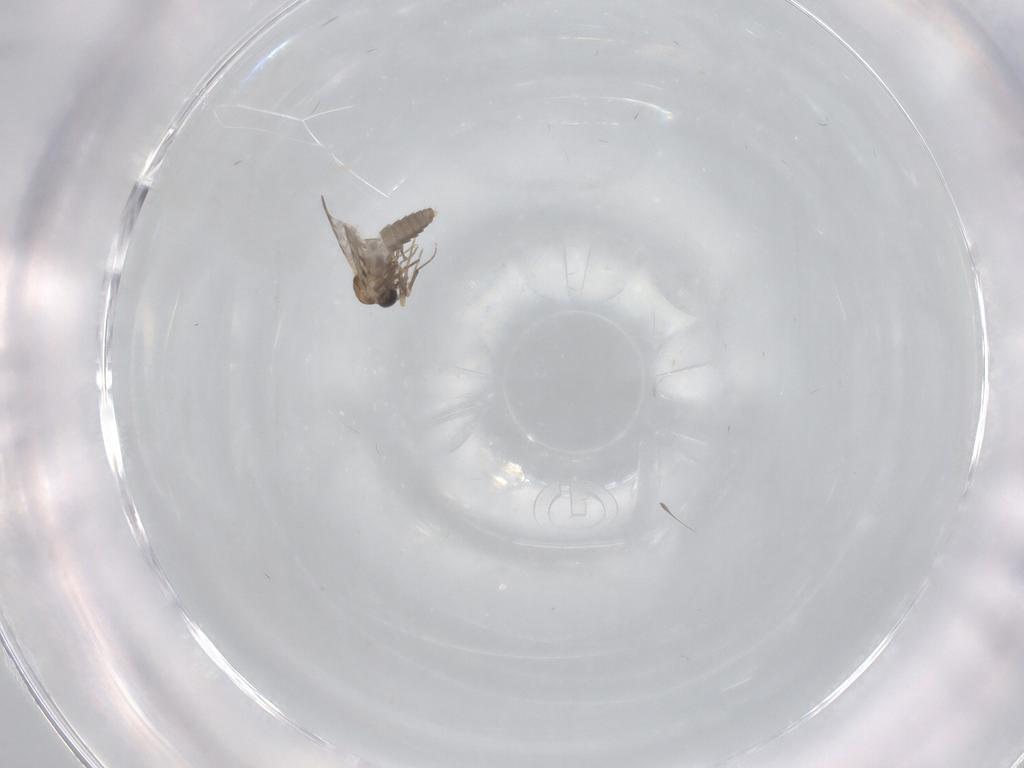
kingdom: Animalia
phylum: Arthropoda
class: Insecta
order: Diptera
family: Ceratopogonidae
